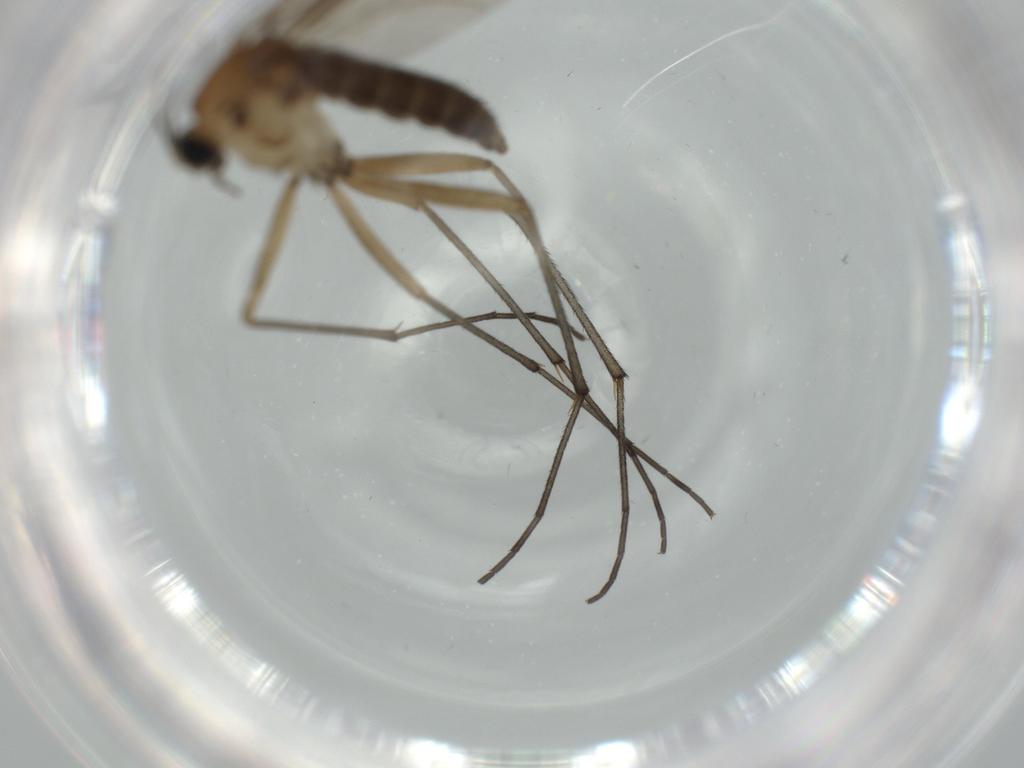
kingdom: Animalia
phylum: Arthropoda
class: Insecta
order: Diptera
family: Sciaridae
